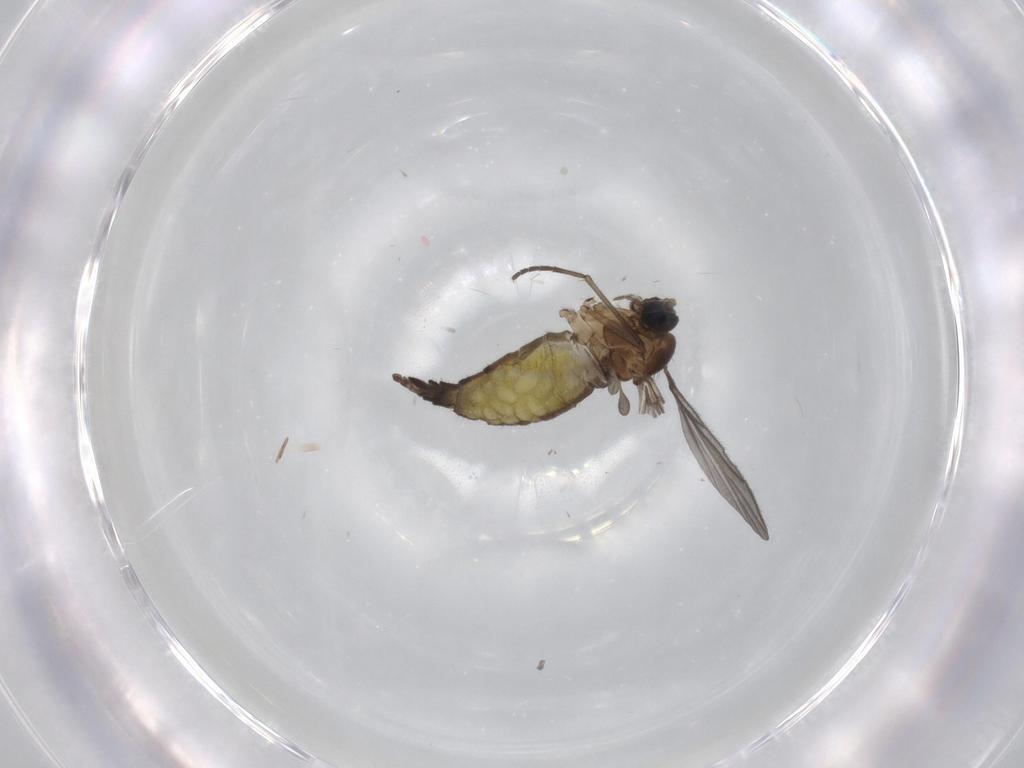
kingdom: Animalia
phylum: Arthropoda
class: Insecta
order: Diptera
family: Sciaridae
